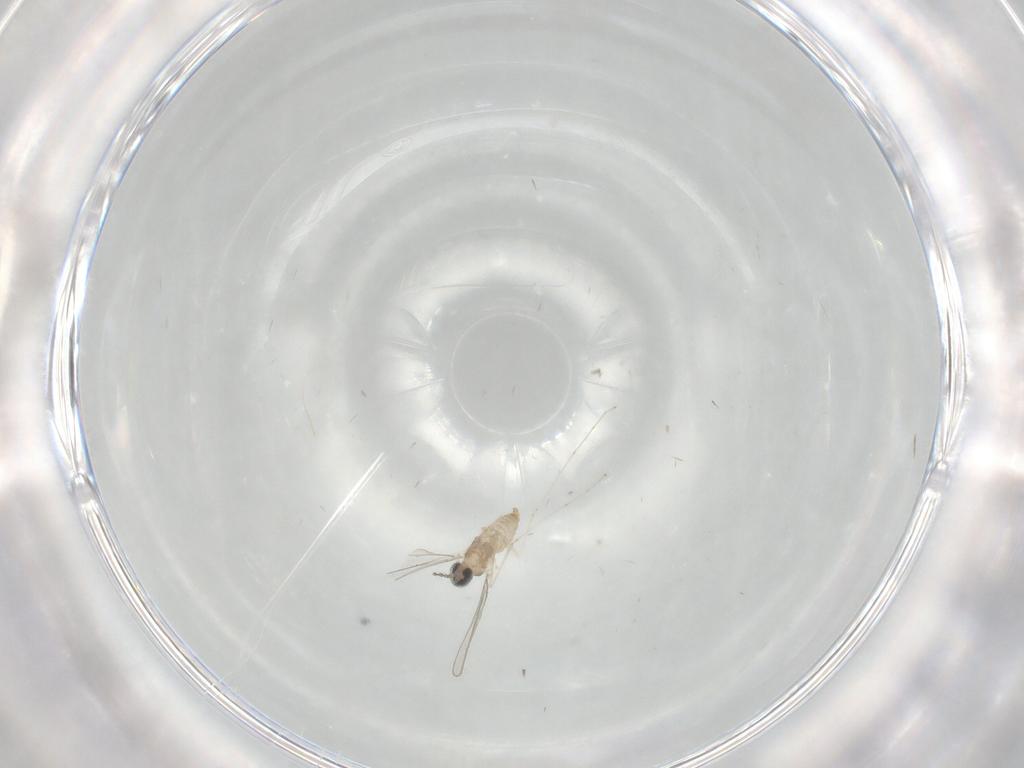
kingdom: Animalia
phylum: Arthropoda
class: Insecta
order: Diptera
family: Cecidomyiidae
